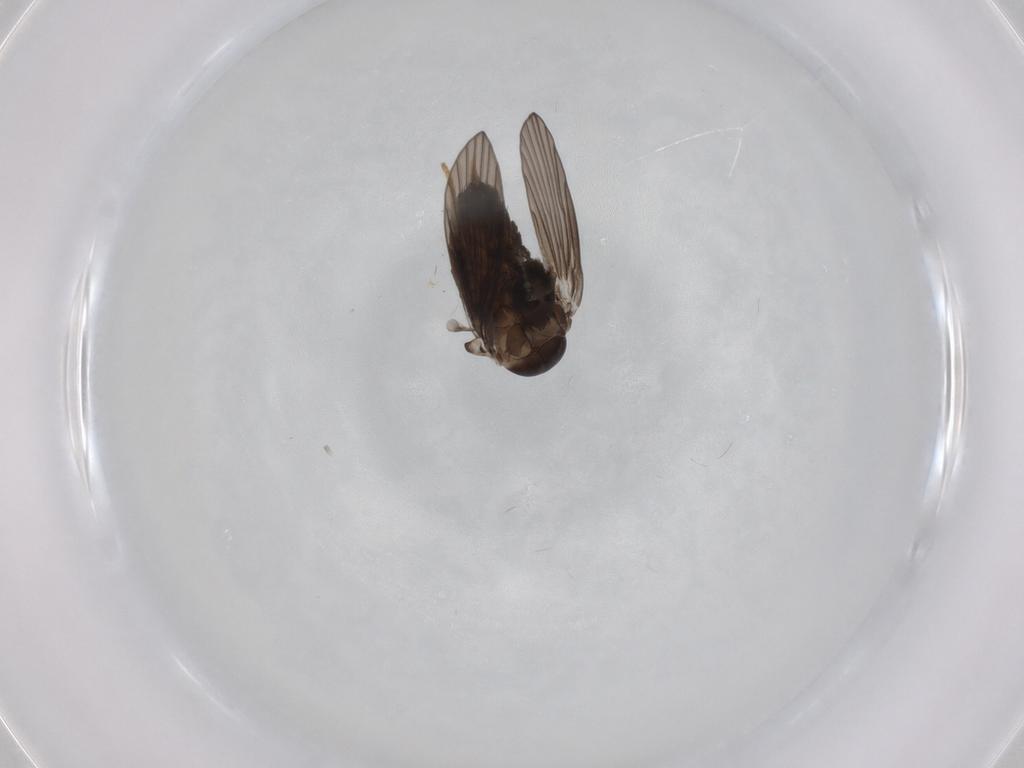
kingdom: Animalia
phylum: Arthropoda
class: Insecta
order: Diptera
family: Psychodidae
